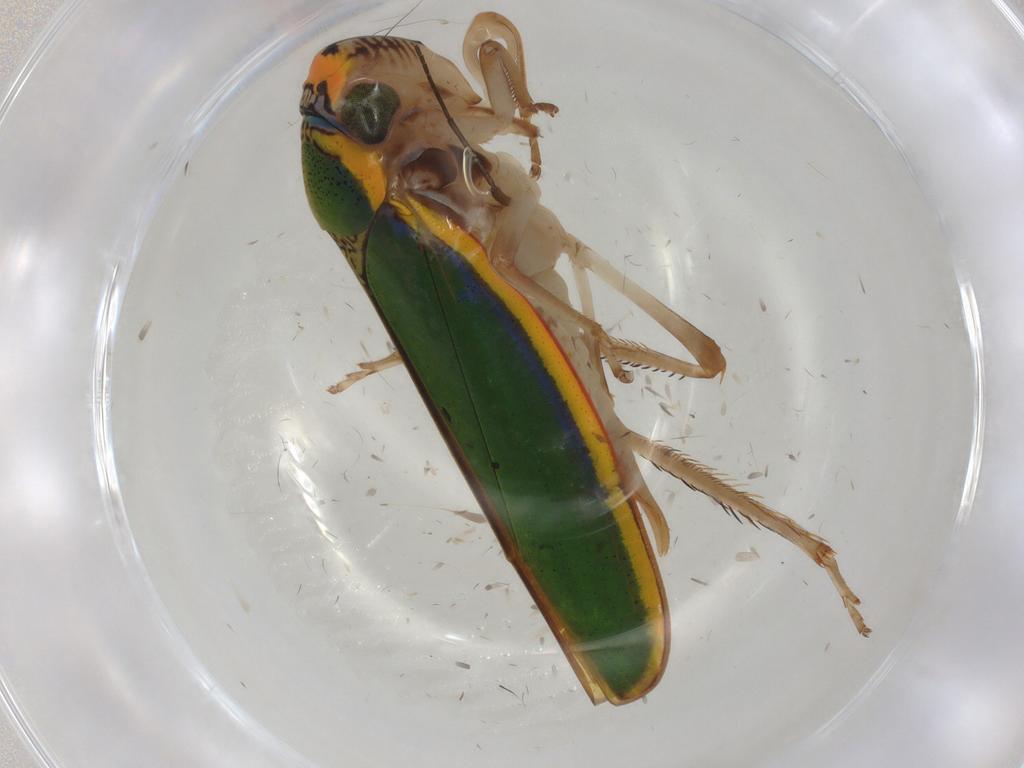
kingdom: Animalia
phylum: Arthropoda
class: Insecta
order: Hemiptera
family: Cicadellidae
